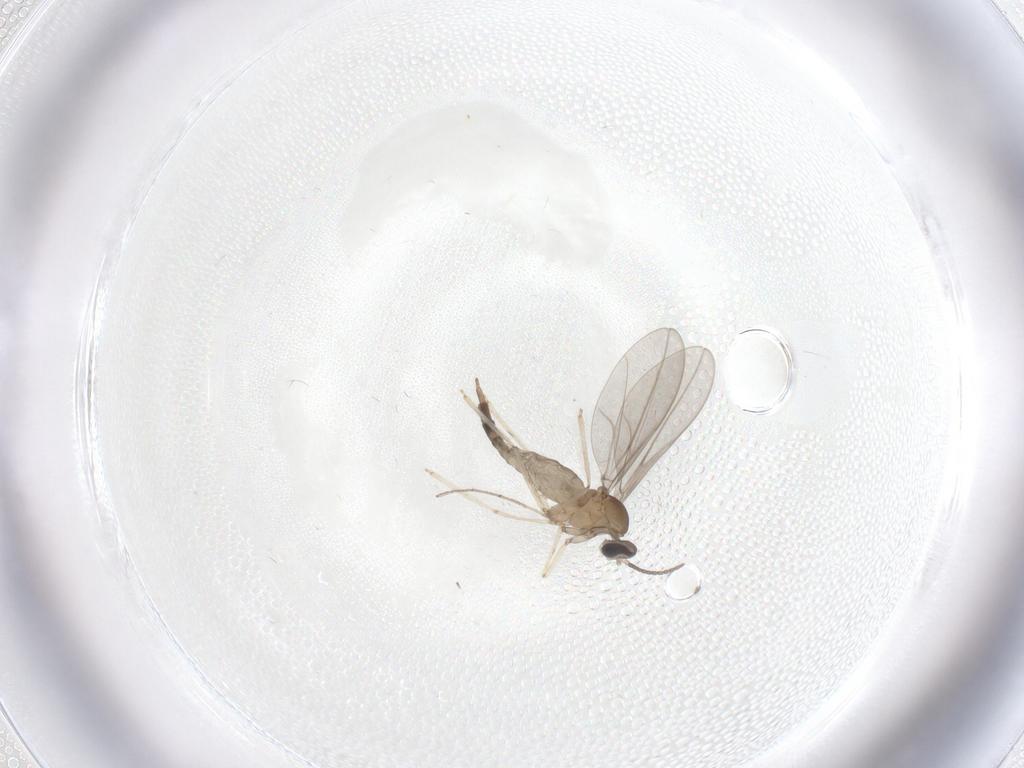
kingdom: Animalia
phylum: Arthropoda
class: Insecta
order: Diptera
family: Cecidomyiidae
